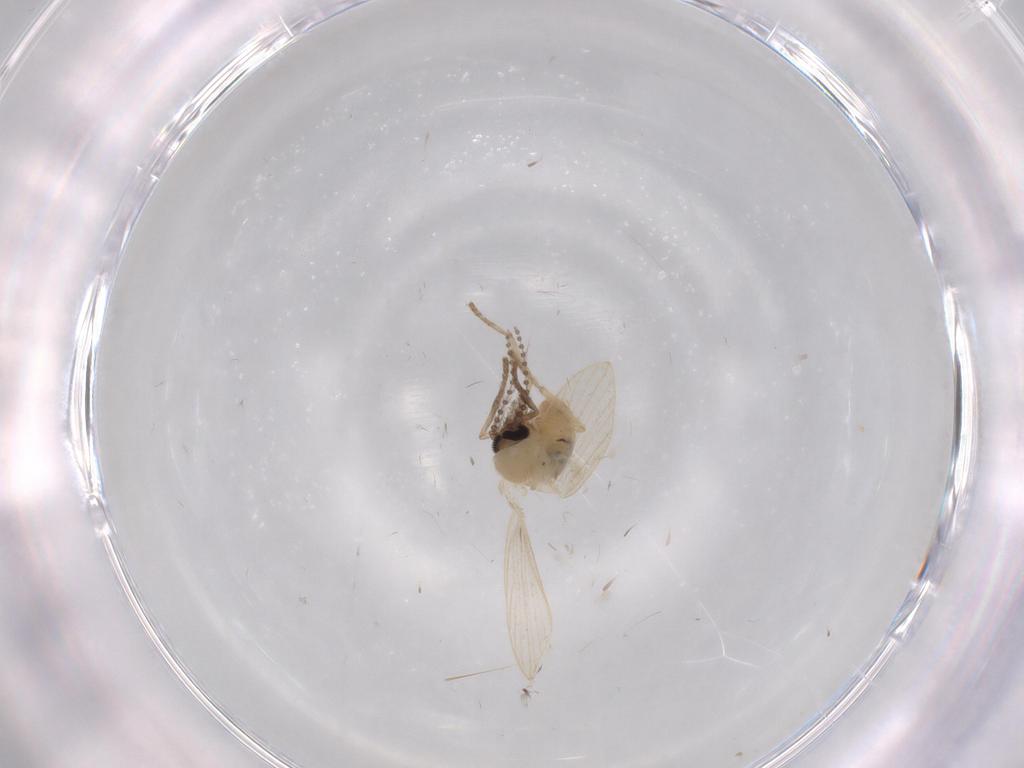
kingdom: Animalia
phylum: Arthropoda
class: Insecta
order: Diptera
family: Psychodidae
